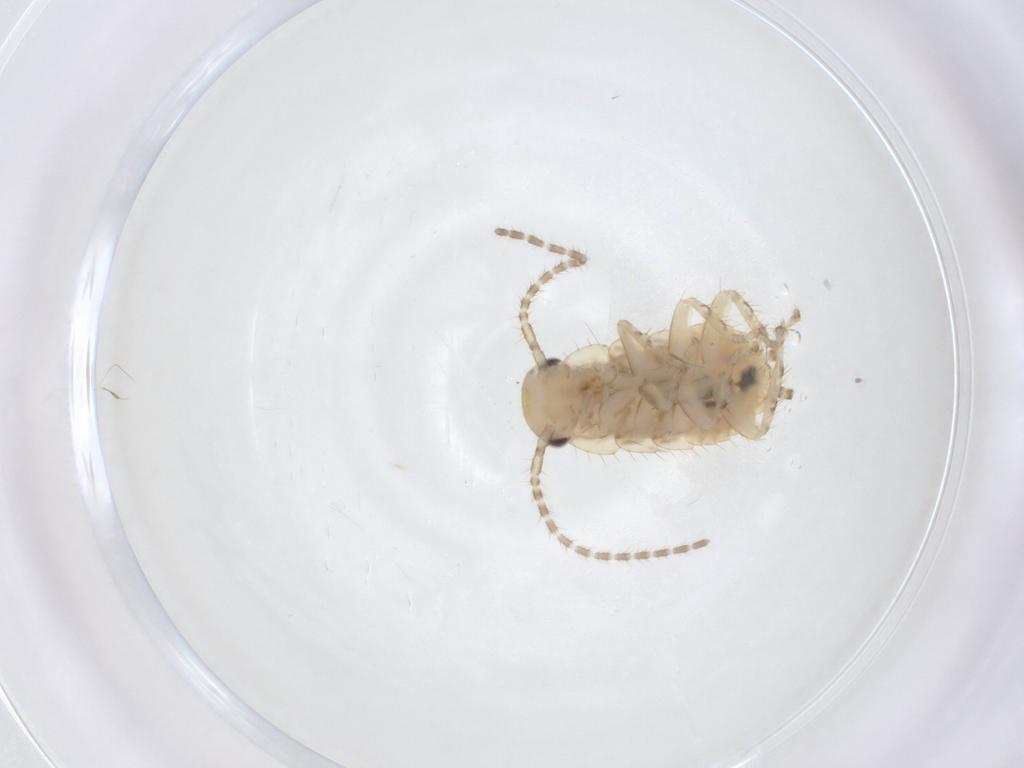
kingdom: Animalia
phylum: Arthropoda
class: Insecta
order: Blattodea
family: Ectobiidae
